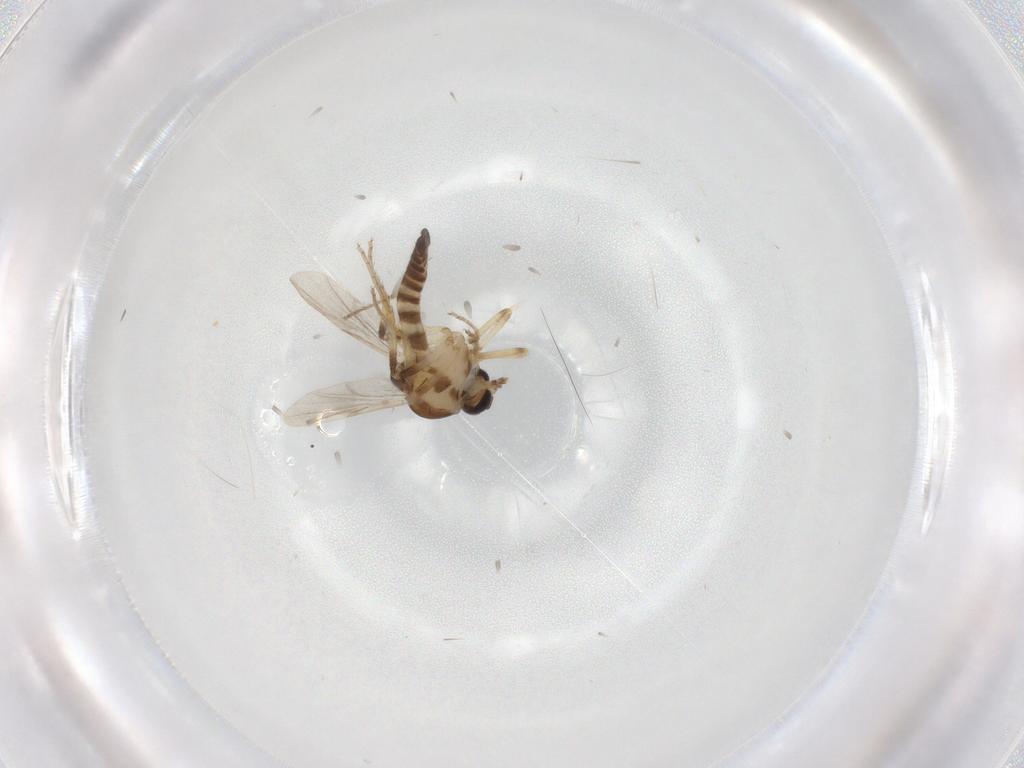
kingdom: Animalia
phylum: Arthropoda
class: Insecta
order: Diptera
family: Ceratopogonidae
